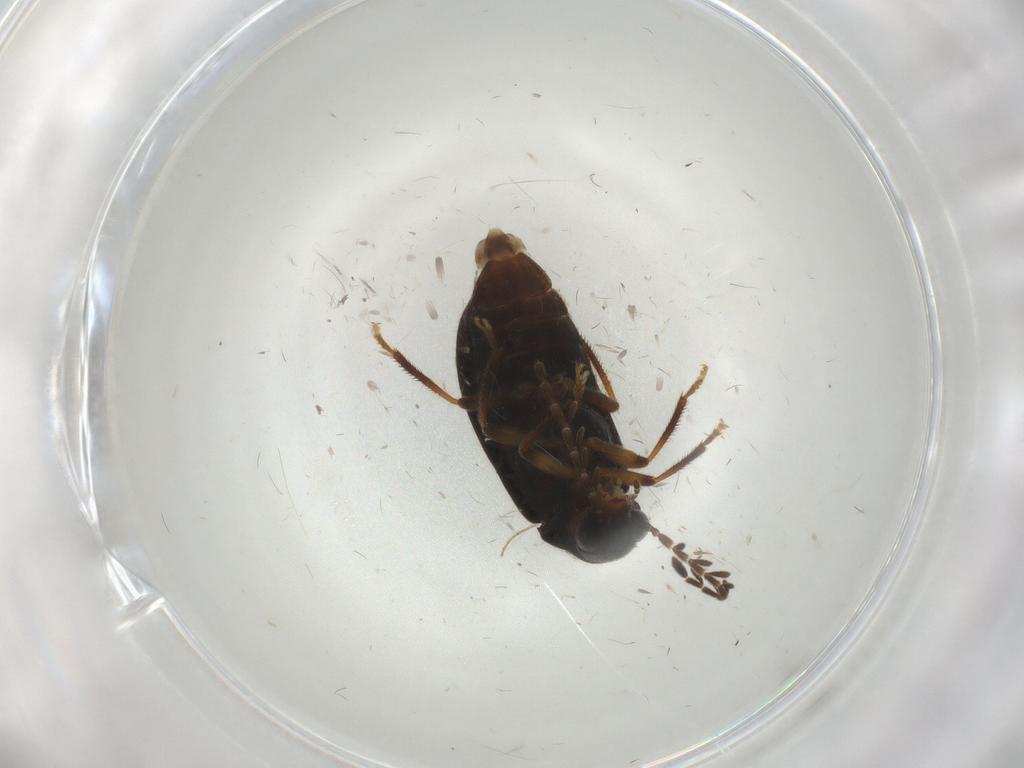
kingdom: Animalia
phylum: Arthropoda
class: Insecta
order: Coleoptera
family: Ptilodactylidae
